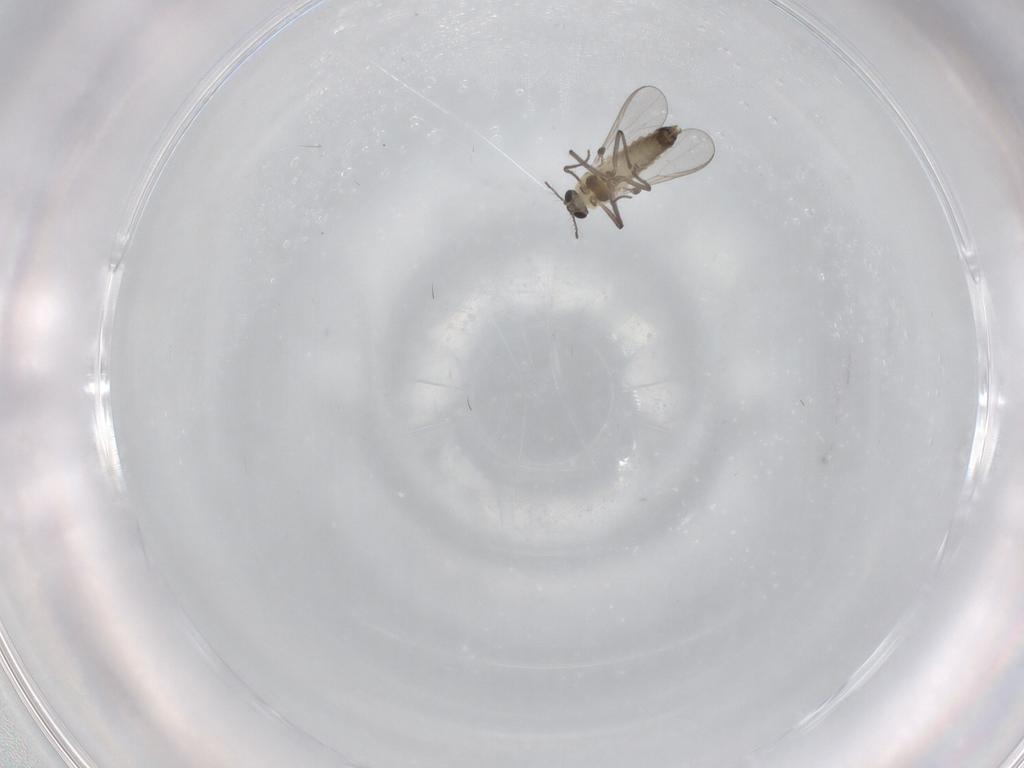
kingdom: Animalia
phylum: Arthropoda
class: Insecta
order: Diptera
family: Chironomidae
